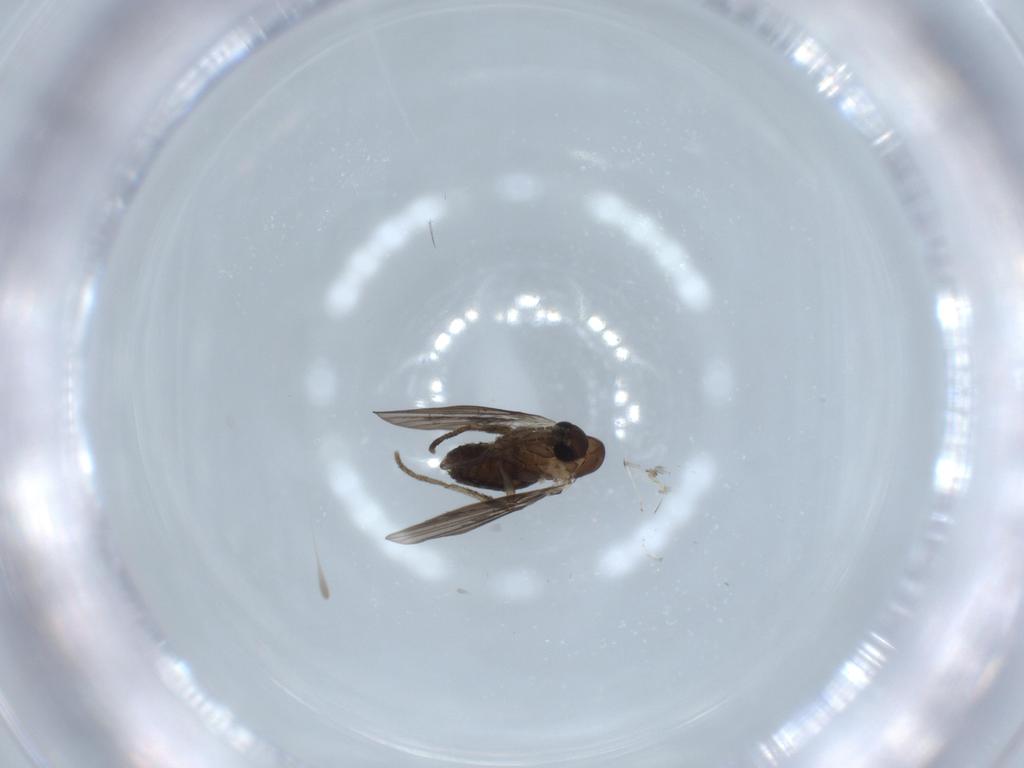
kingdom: Animalia
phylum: Arthropoda
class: Insecta
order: Diptera
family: Psychodidae
